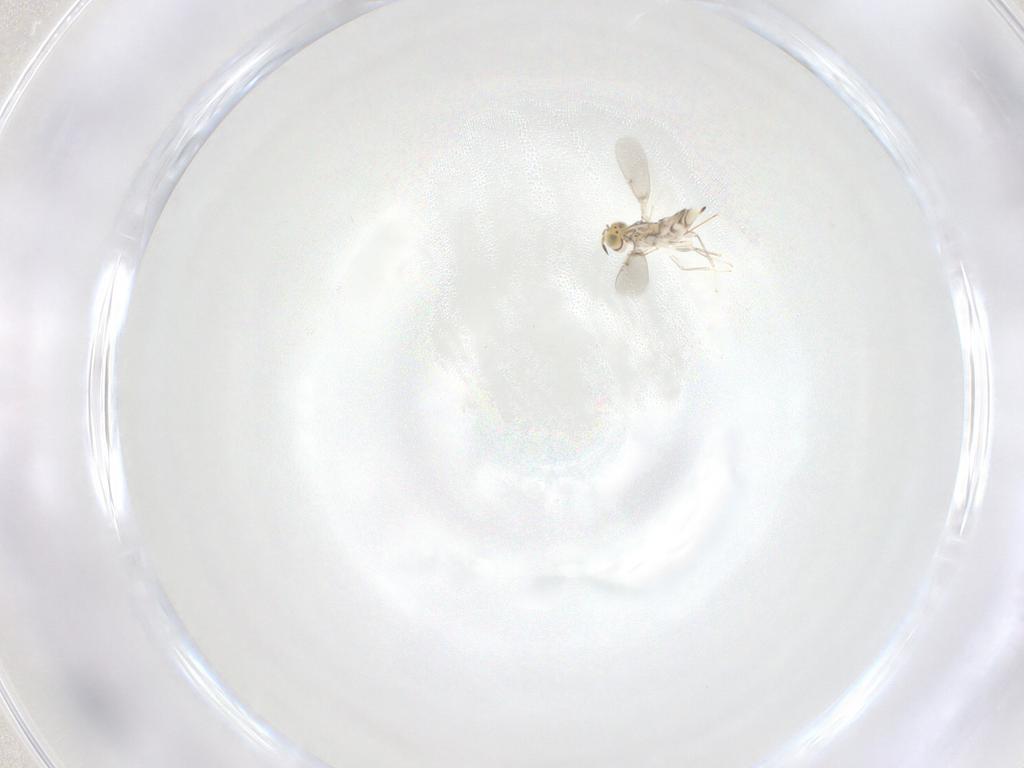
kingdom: Animalia
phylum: Arthropoda
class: Insecta
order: Hymenoptera
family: Aphelinidae
